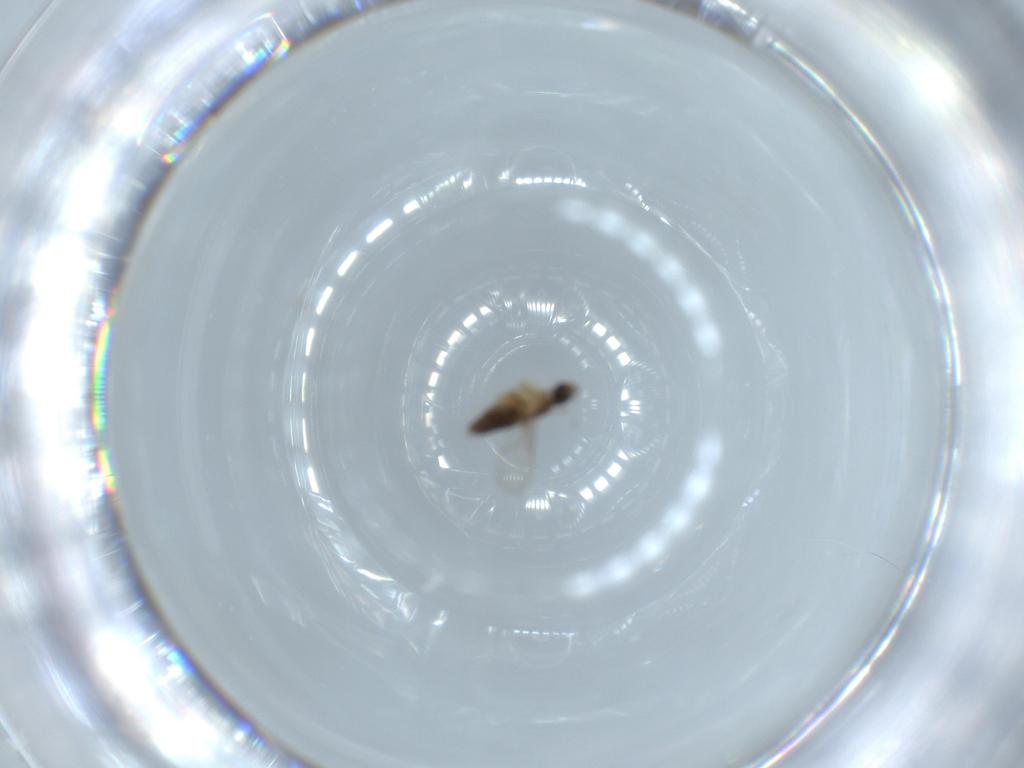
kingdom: Animalia
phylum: Arthropoda
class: Insecta
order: Diptera
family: Phoridae
